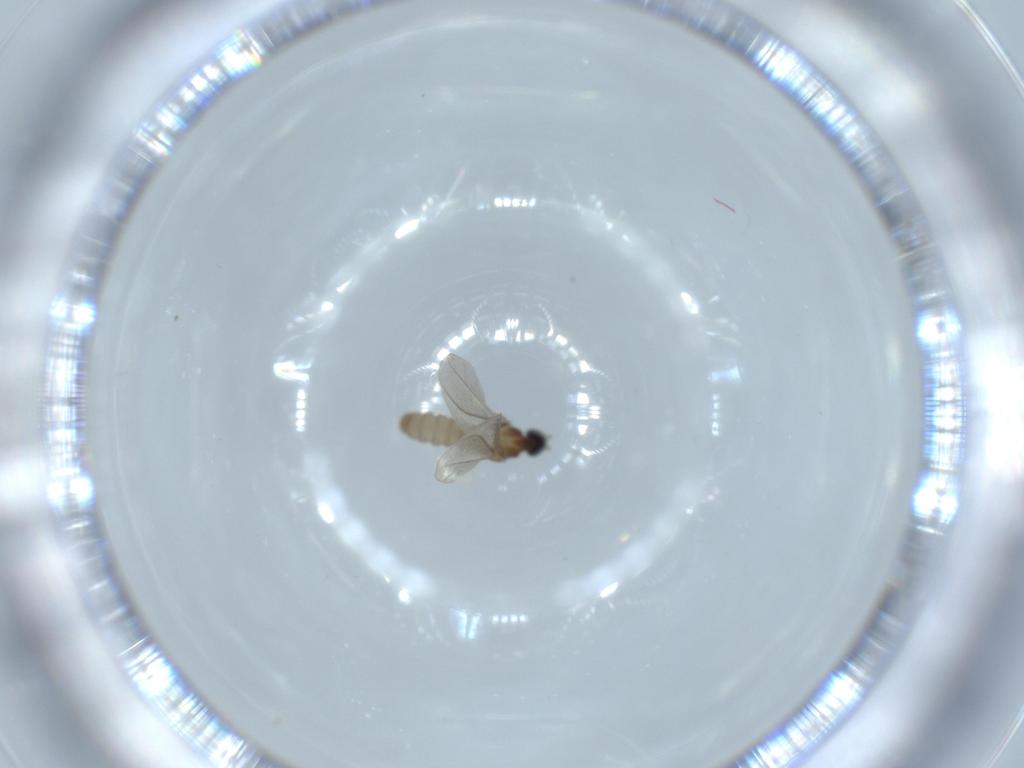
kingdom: Animalia
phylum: Arthropoda
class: Insecta
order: Diptera
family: Cecidomyiidae
